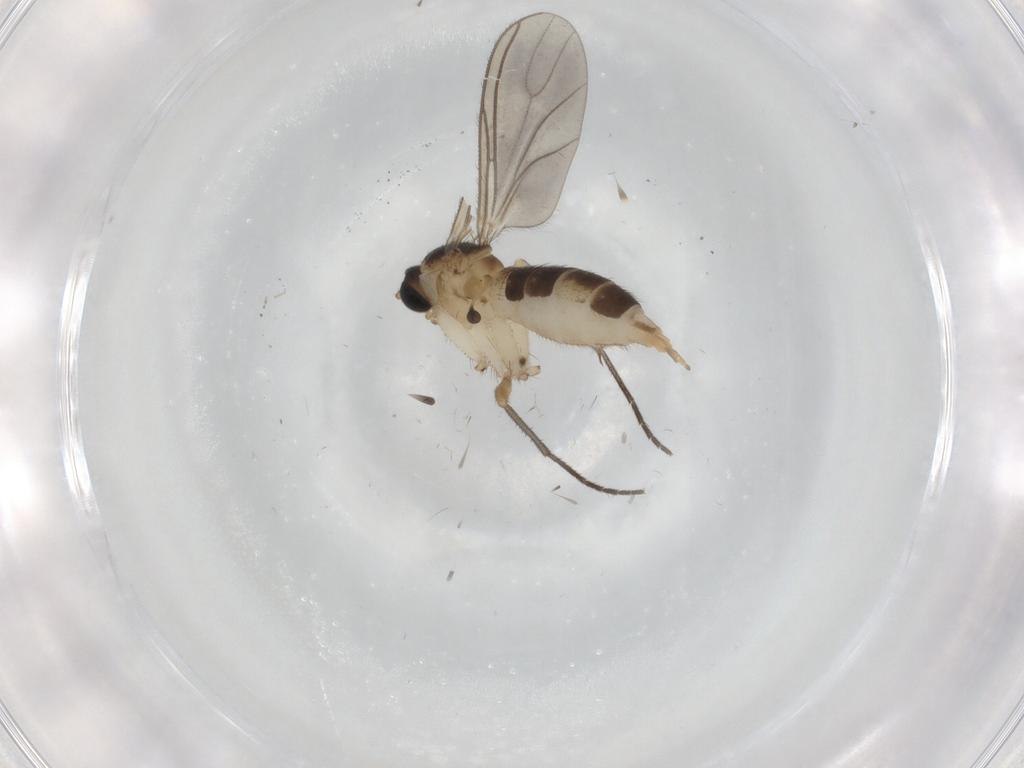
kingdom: Animalia
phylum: Arthropoda
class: Insecta
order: Diptera
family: Sciaridae
